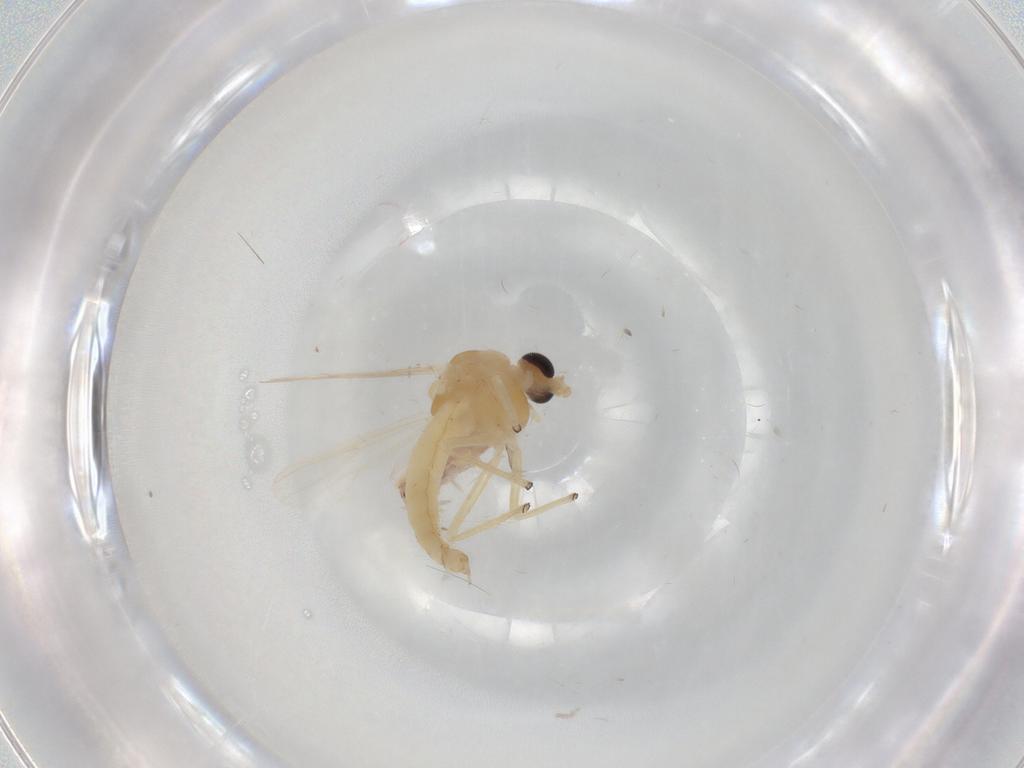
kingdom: Animalia
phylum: Arthropoda
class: Insecta
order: Diptera
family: Chironomidae
